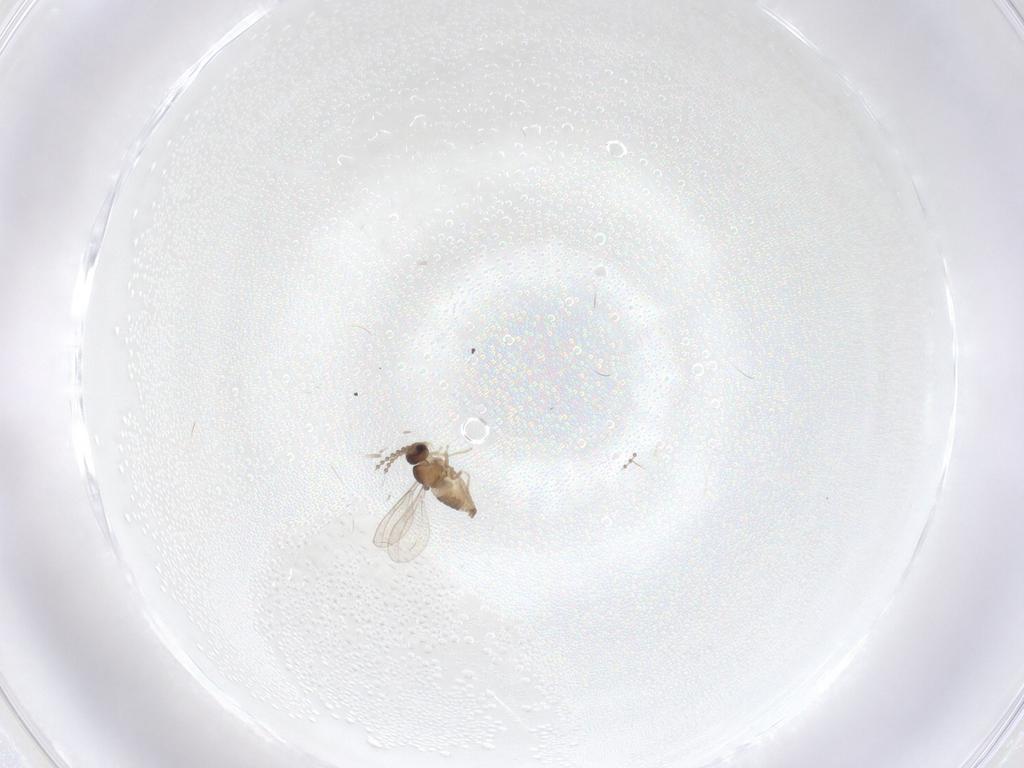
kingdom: Animalia
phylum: Arthropoda
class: Insecta
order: Diptera
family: Cecidomyiidae
